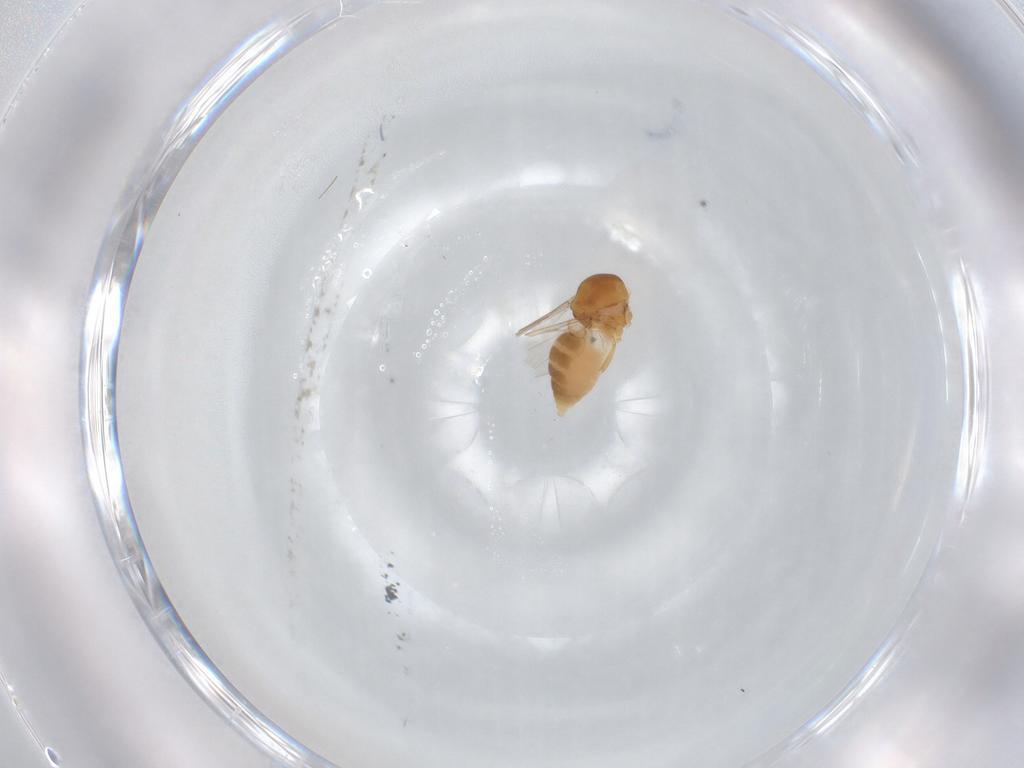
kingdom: Animalia
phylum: Arthropoda
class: Insecta
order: Diptera
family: Ceratopogonidae
